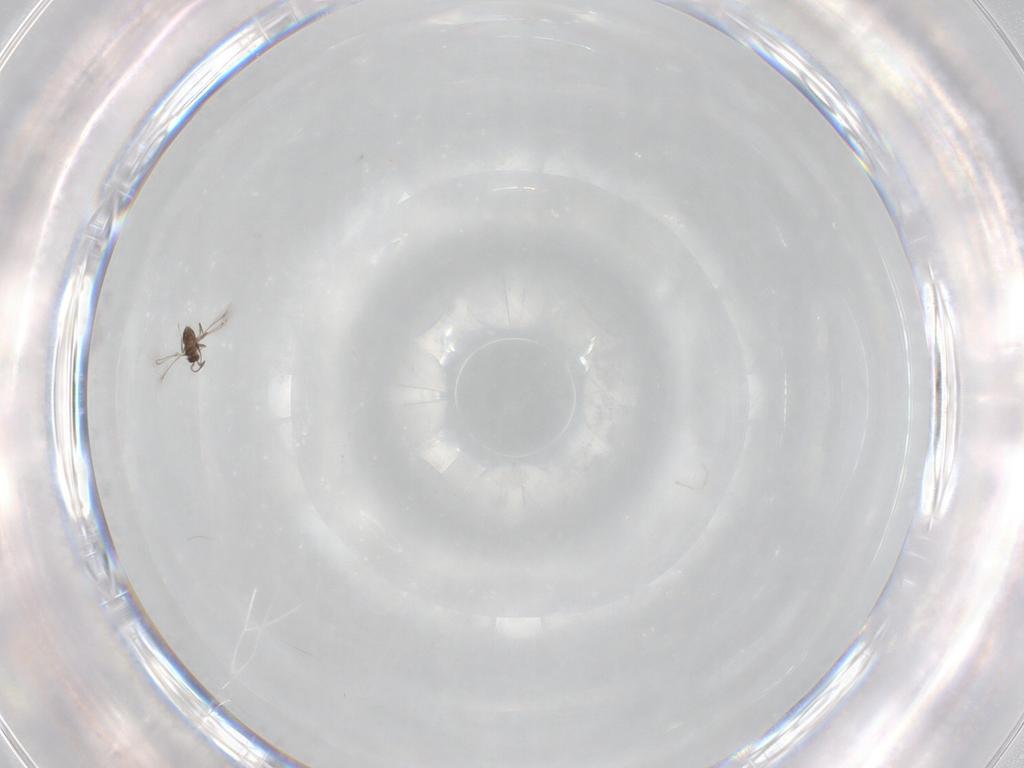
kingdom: Animalia
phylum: Arthropoda
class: Insecta
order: Hymenoptera
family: Mymaridae
